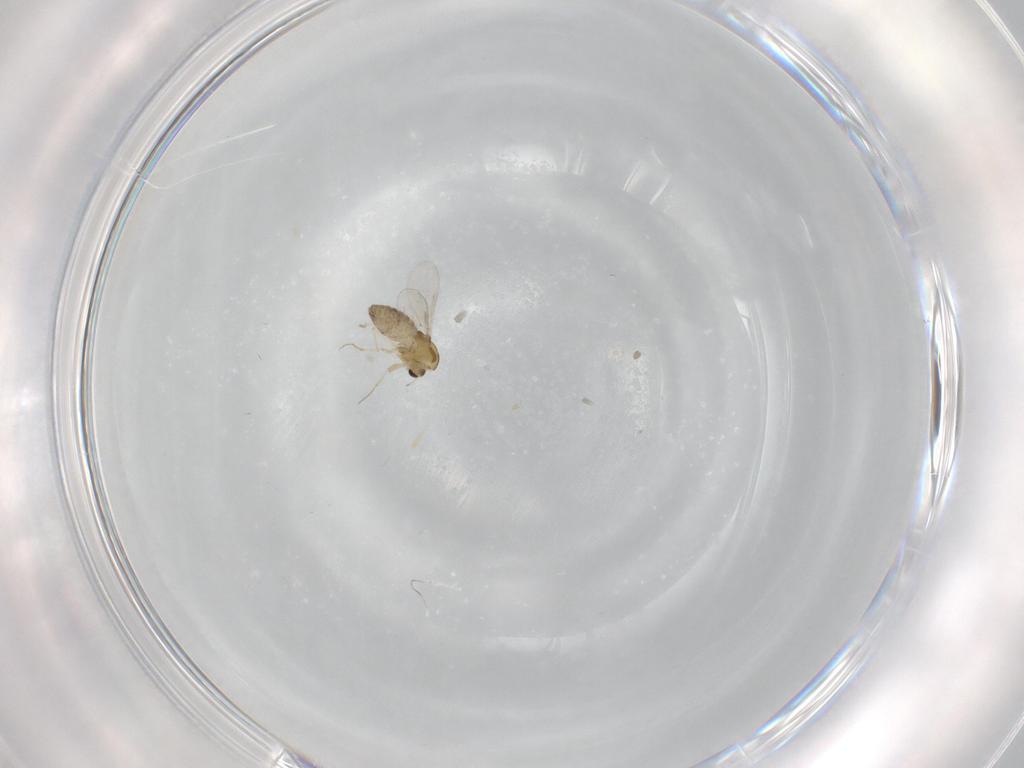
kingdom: Animalia
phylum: Arthropoda
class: Insecta
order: Diptera
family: Chironomidae
